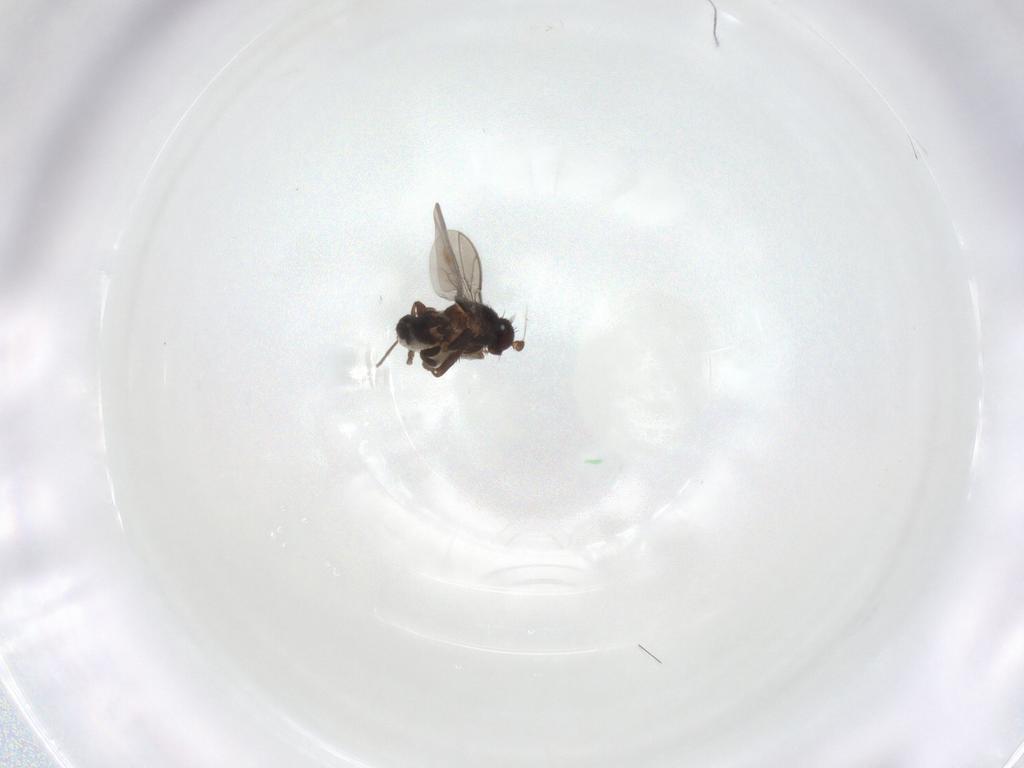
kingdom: Animalia
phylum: Arthropoda
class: Insecta
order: Diptera
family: Sphaeroceridae
